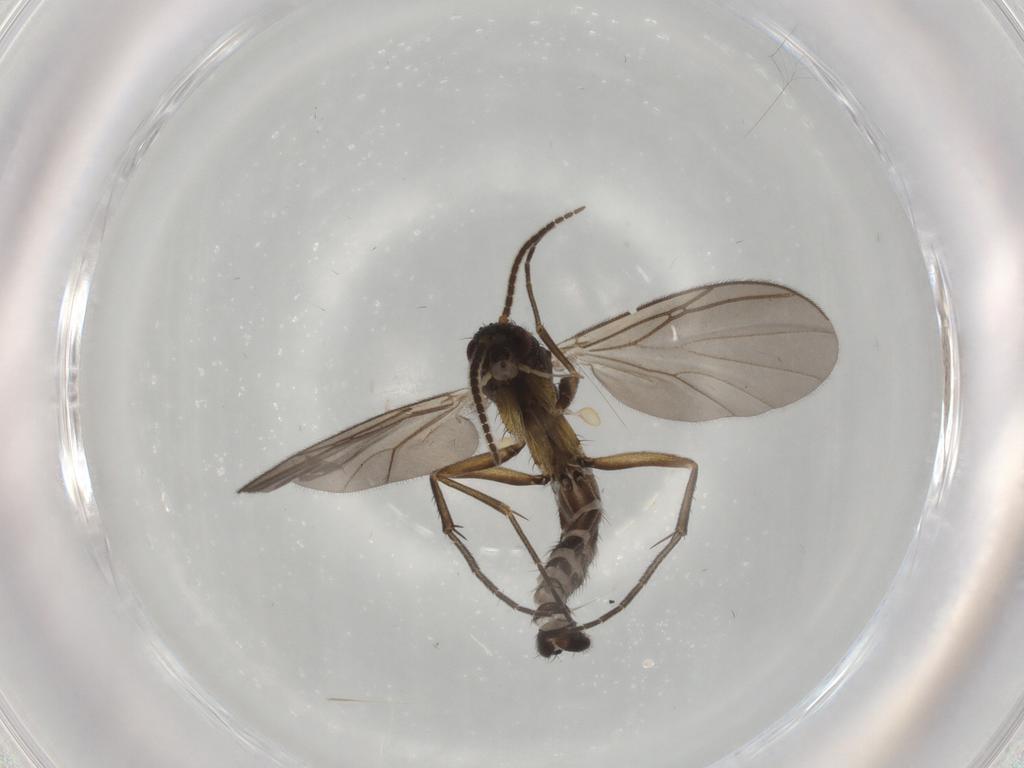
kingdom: Animalia
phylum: Arthropoda
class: Insecta
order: Diptera
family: Mycetophilidae
